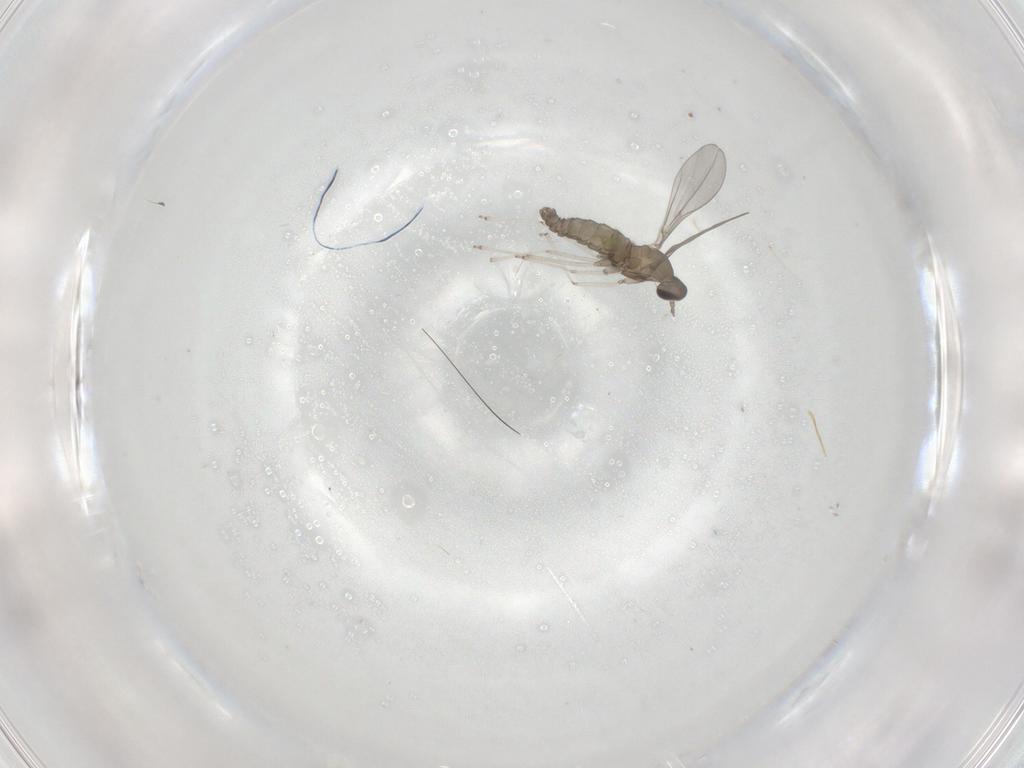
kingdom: Animalia
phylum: Arthropoda
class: Insecta
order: Diptera
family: Cecidomyiidae
